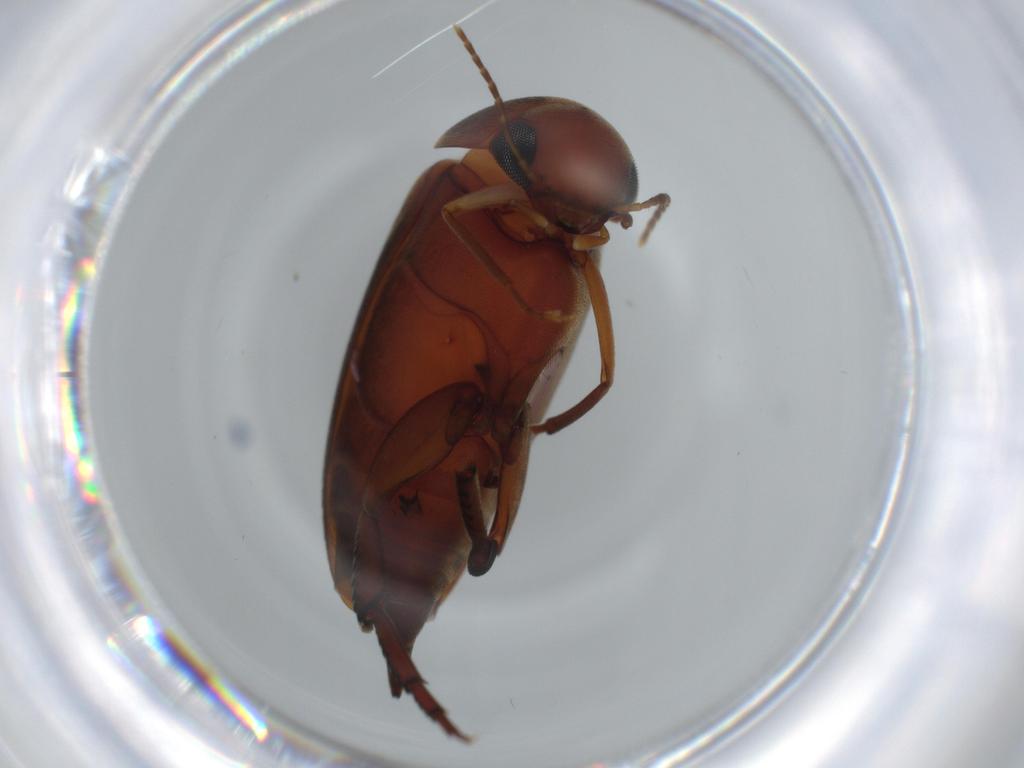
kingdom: Animalia
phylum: Arthropoda
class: Insecta
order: Coleoptera
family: Mordellidae
